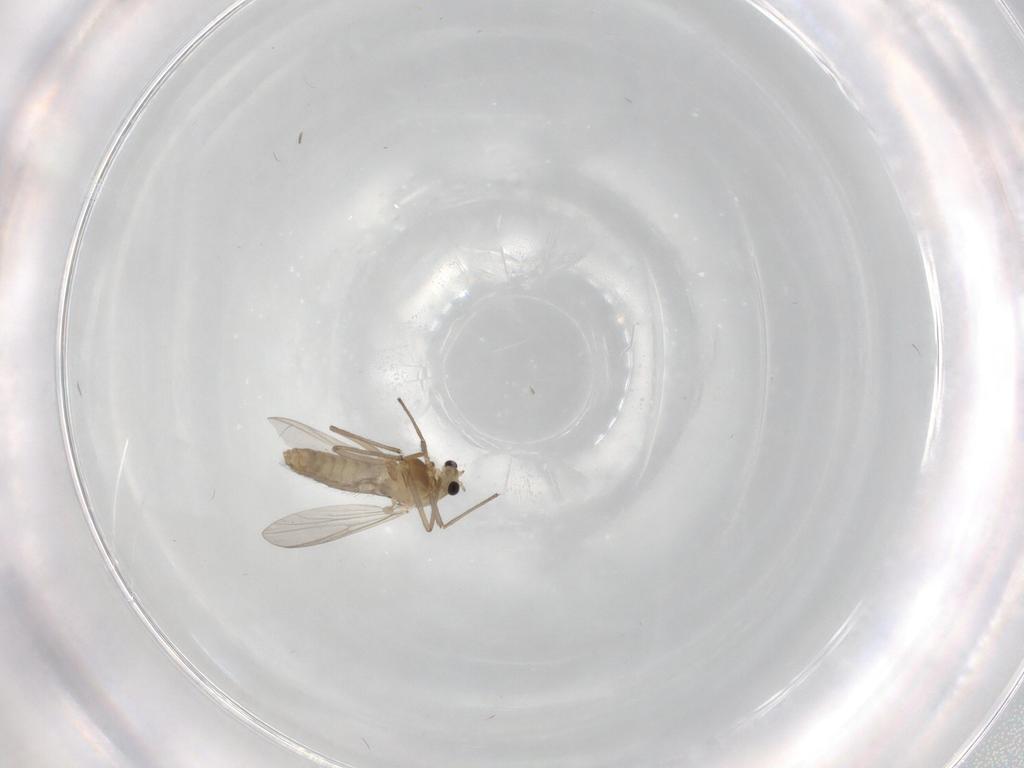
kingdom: Animalia
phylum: Arthropoda
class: Insecta
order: Diptera
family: Chironomidae
